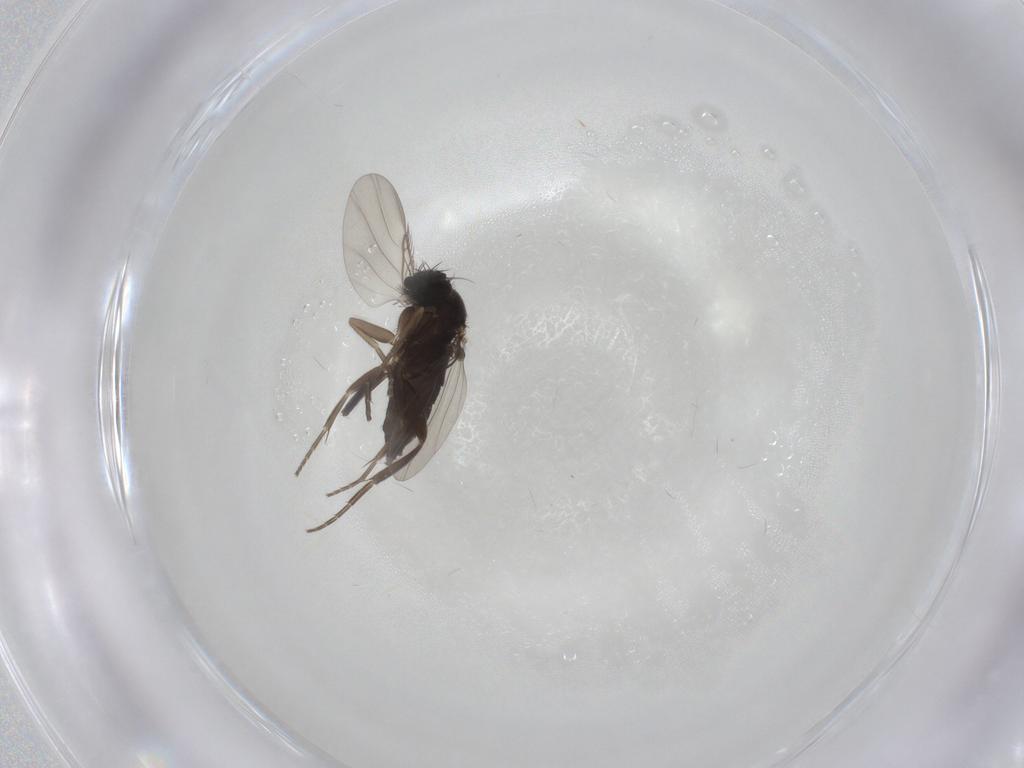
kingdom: Animalia
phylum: Arthropoda
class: Insecta
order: Diptera
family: Phoridae
